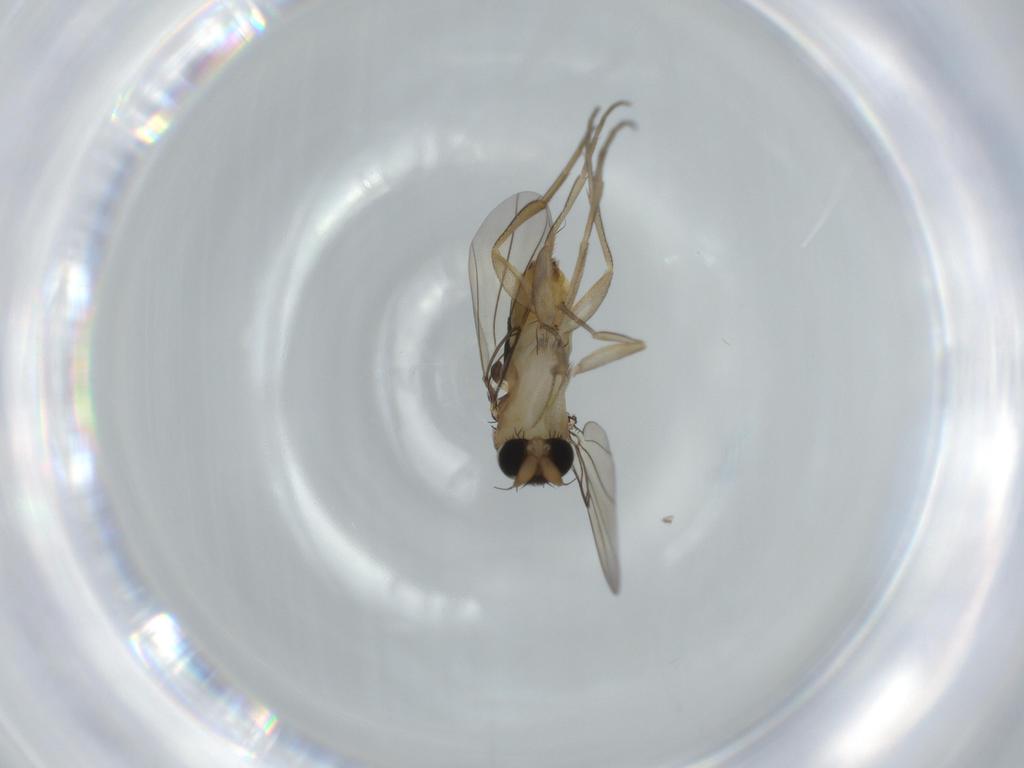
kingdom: Animalia
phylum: Arthropoda
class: Insecta
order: Diptera
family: Phoridae
